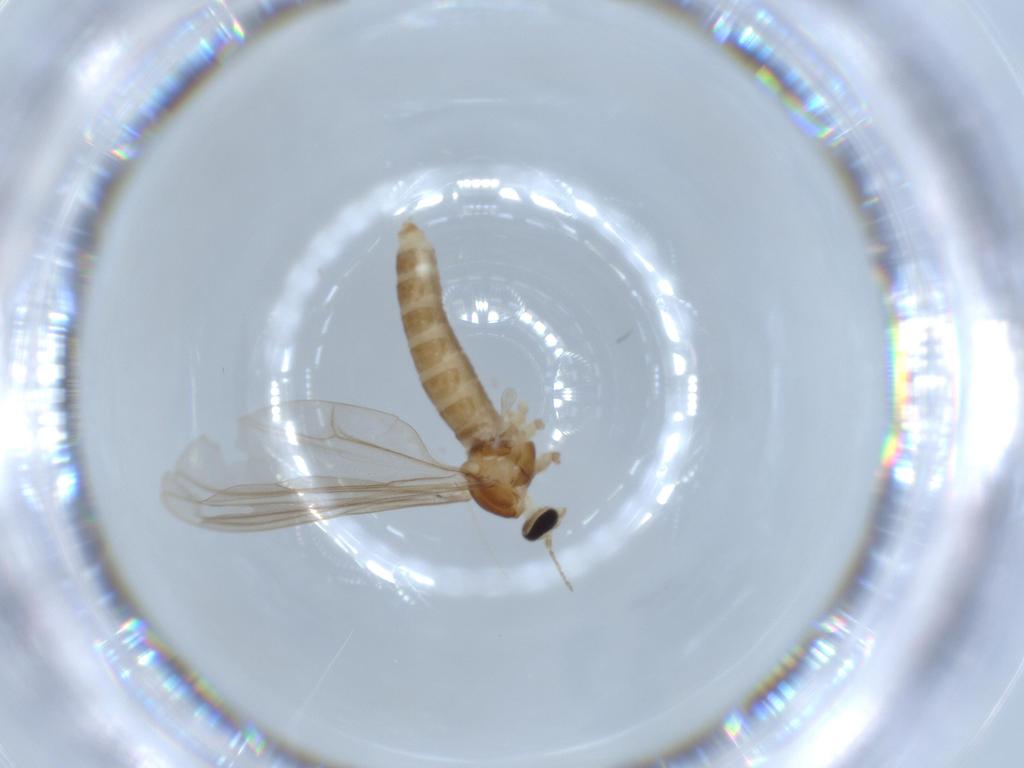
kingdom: Animalia
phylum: Arthropoda
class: Insecta
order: Diptera
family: Cecidomyiidae
